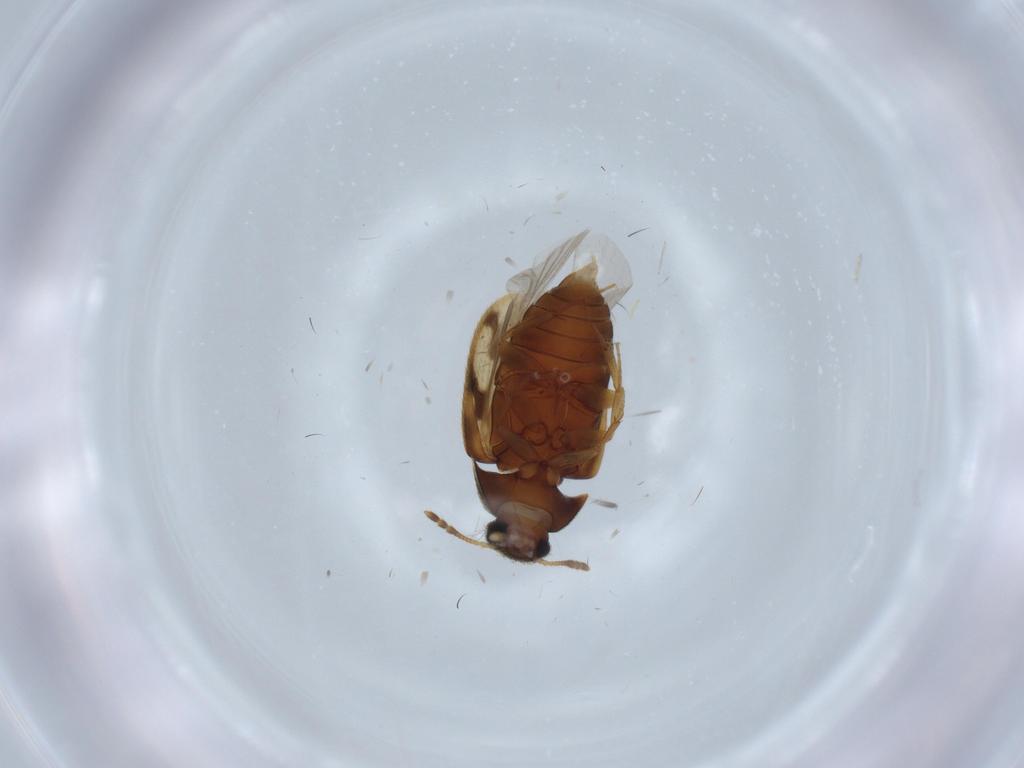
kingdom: Animalia
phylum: Arthropoda
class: Insecta
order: Coleoptera
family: Mycetophagidae
